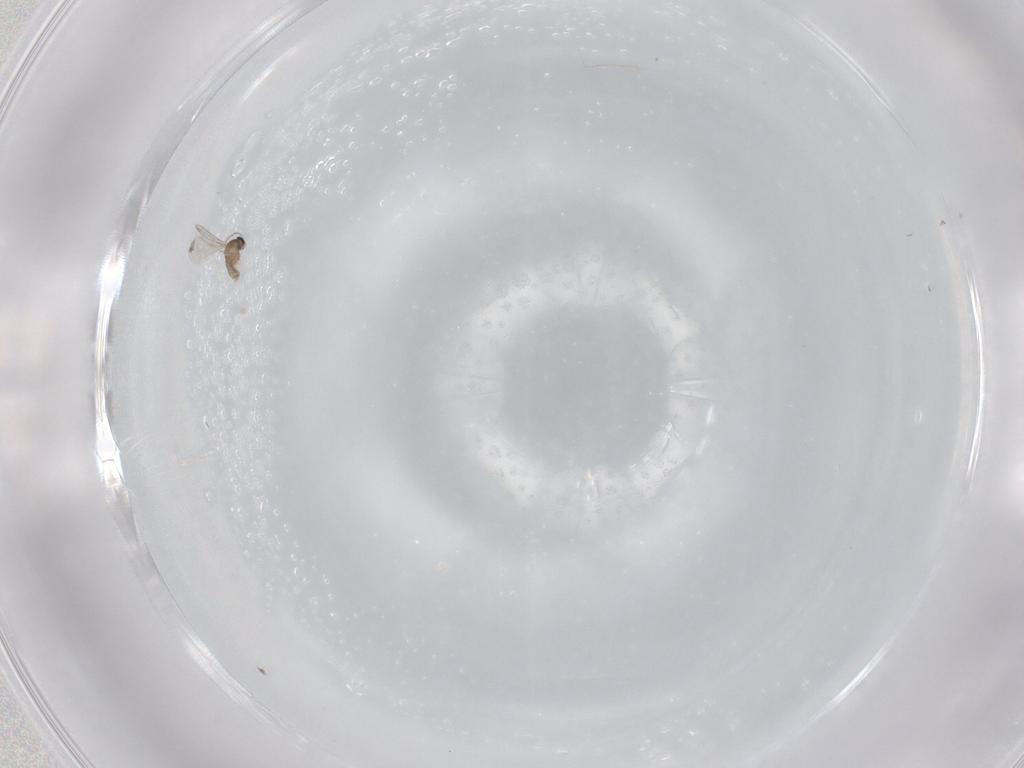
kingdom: Animalia
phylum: Arthropoda
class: Insecta
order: Diptera
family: Cecidomyiidae
